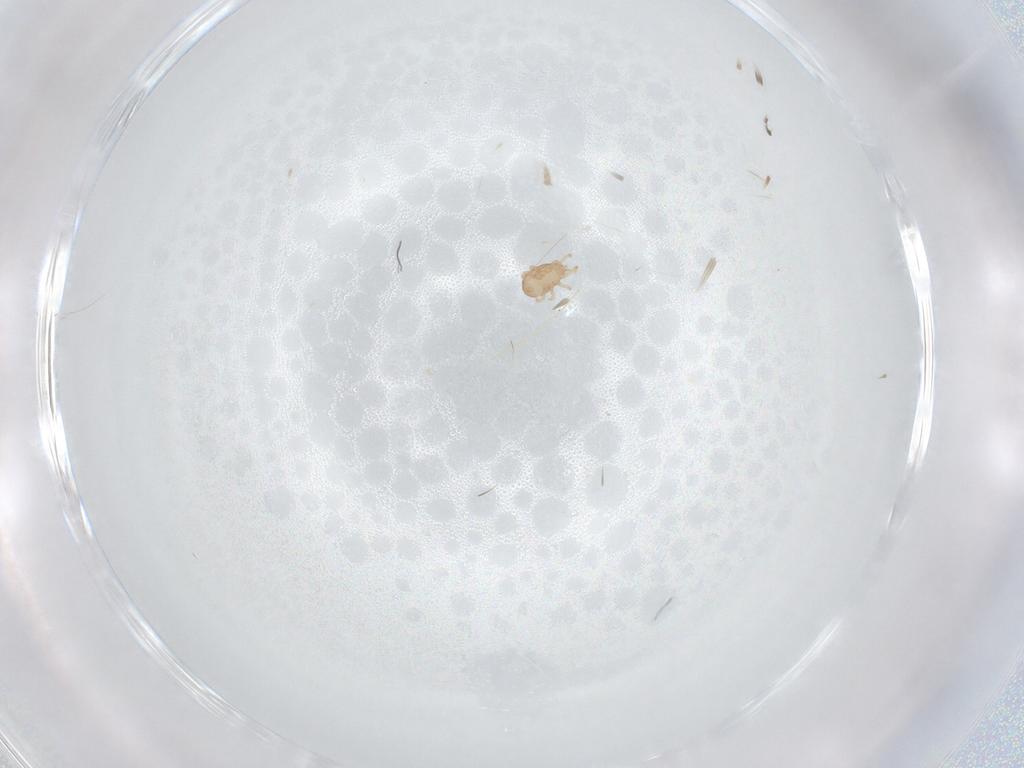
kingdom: Animalia
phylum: Arthropoda
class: Arachnida
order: Mesostigmata
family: Ascidae
